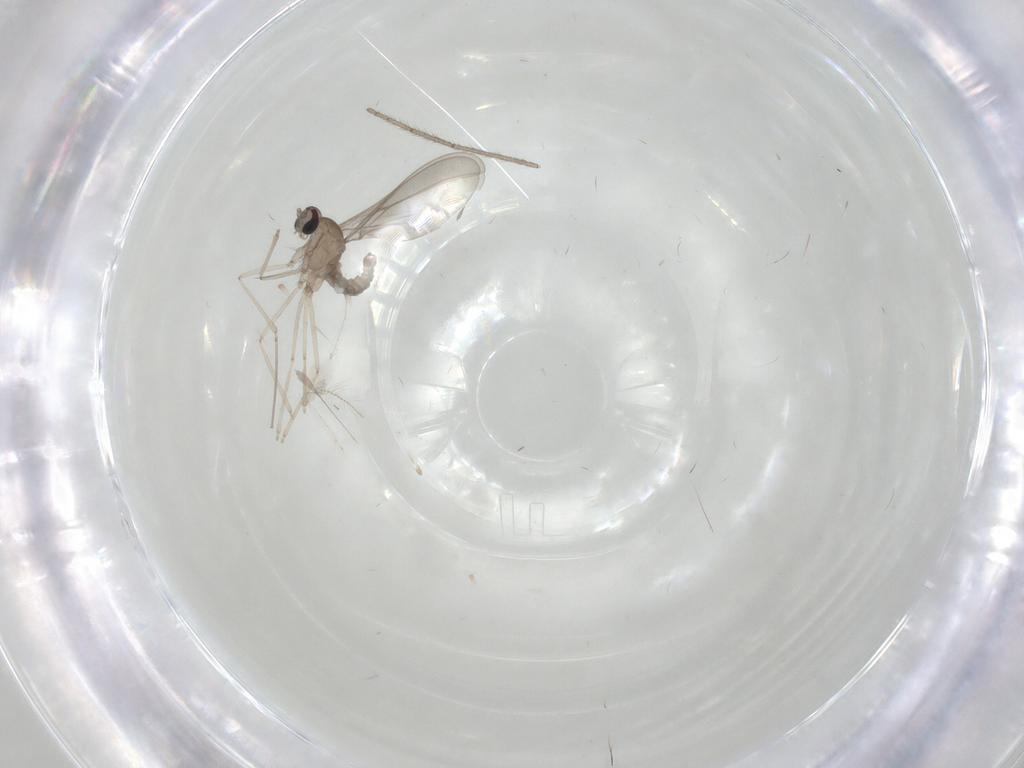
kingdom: Animalia
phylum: Arthropoda
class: Insecta
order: Diptera
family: Limoniidae
